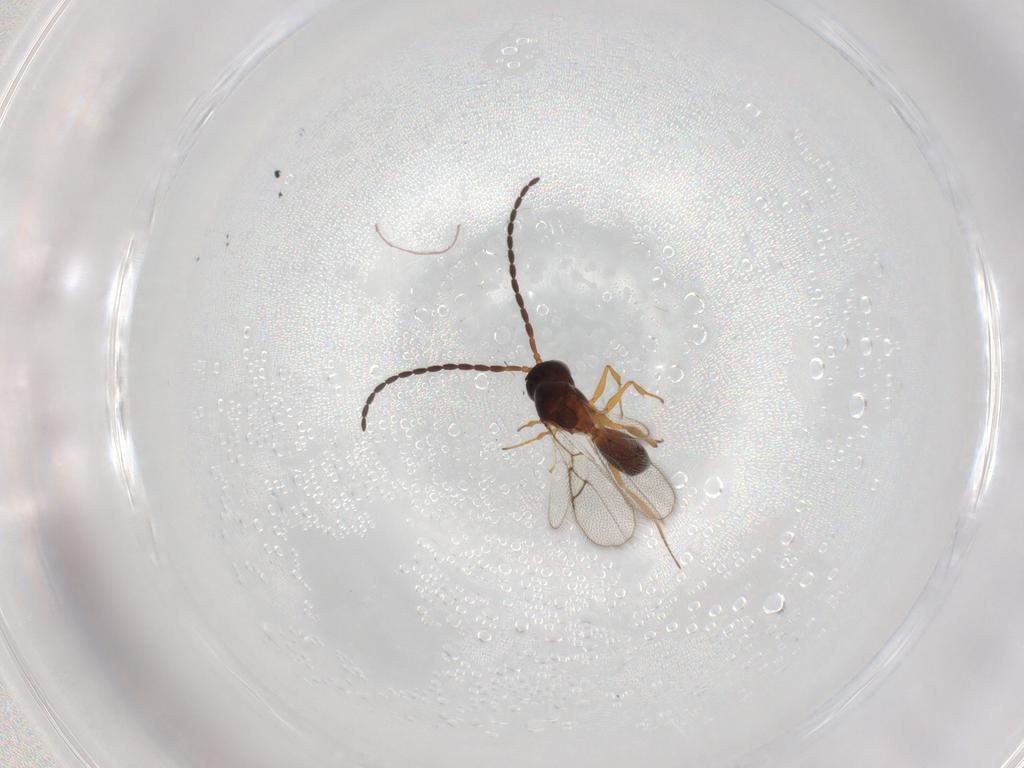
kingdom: Animalia
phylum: Arthropoda
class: Insecta
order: Hymenoptera
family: Figitidae
